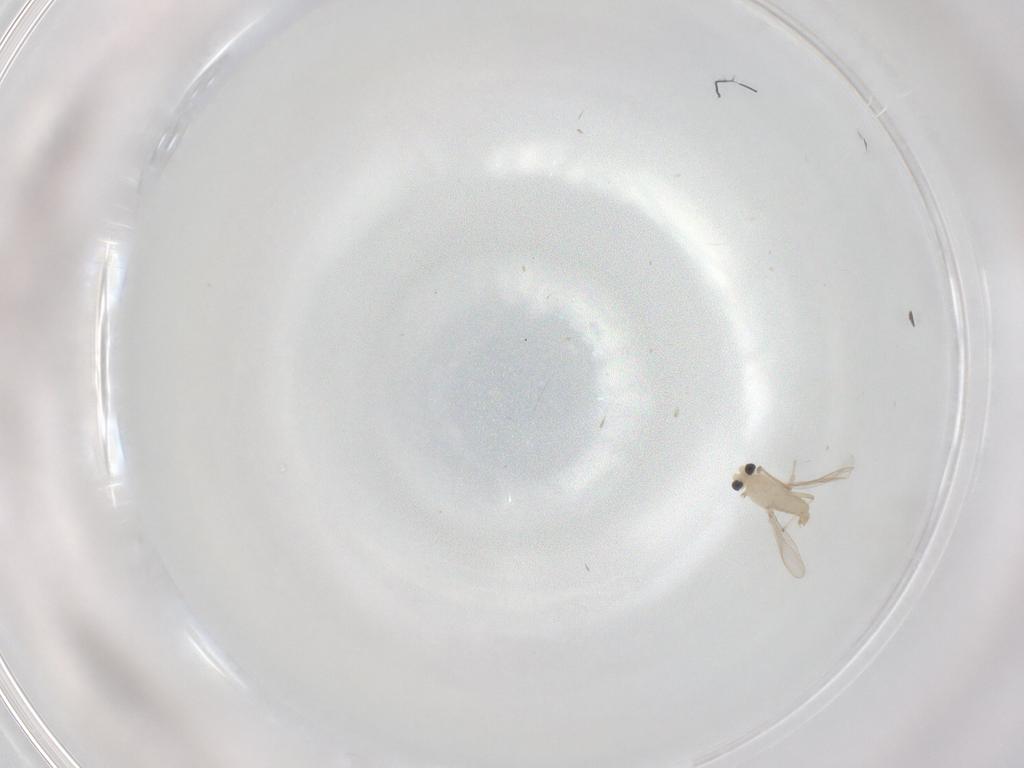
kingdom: Animalia
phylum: Arthropoda
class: Insecta
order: Diptera
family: Chironomidae
